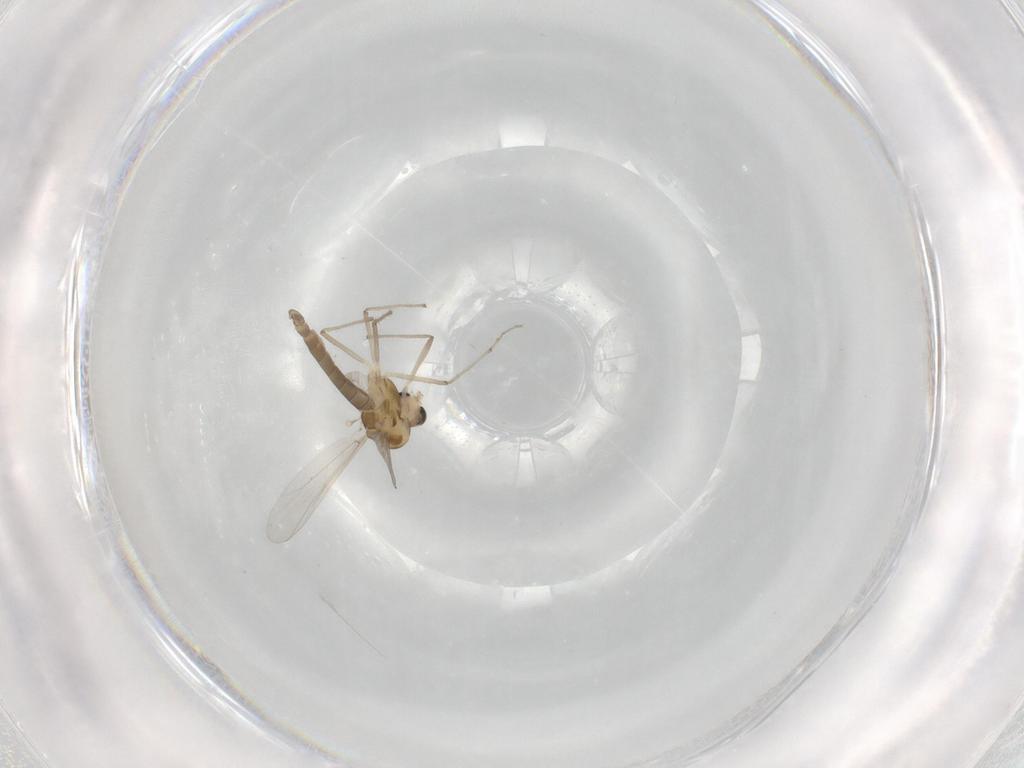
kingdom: Animalia
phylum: Arthropoda
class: Insecta
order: Diptera
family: Chironomidae
